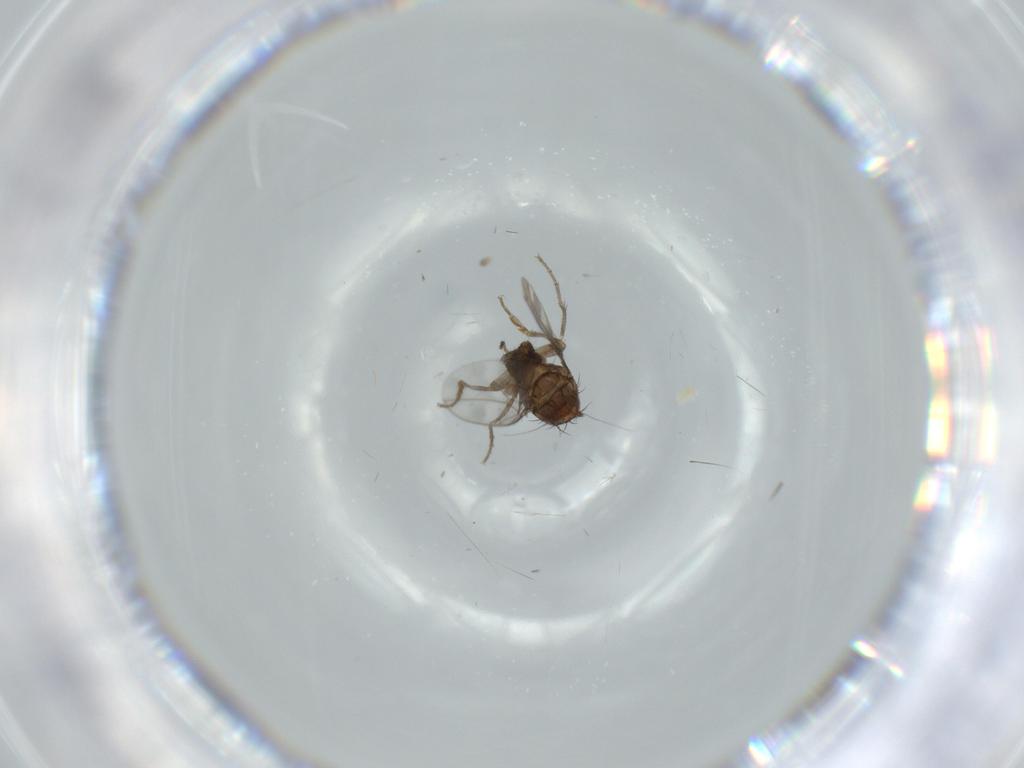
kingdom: Animalia
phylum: Arthropoda
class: Insecta
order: Diptera
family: Sphaeroceridae
